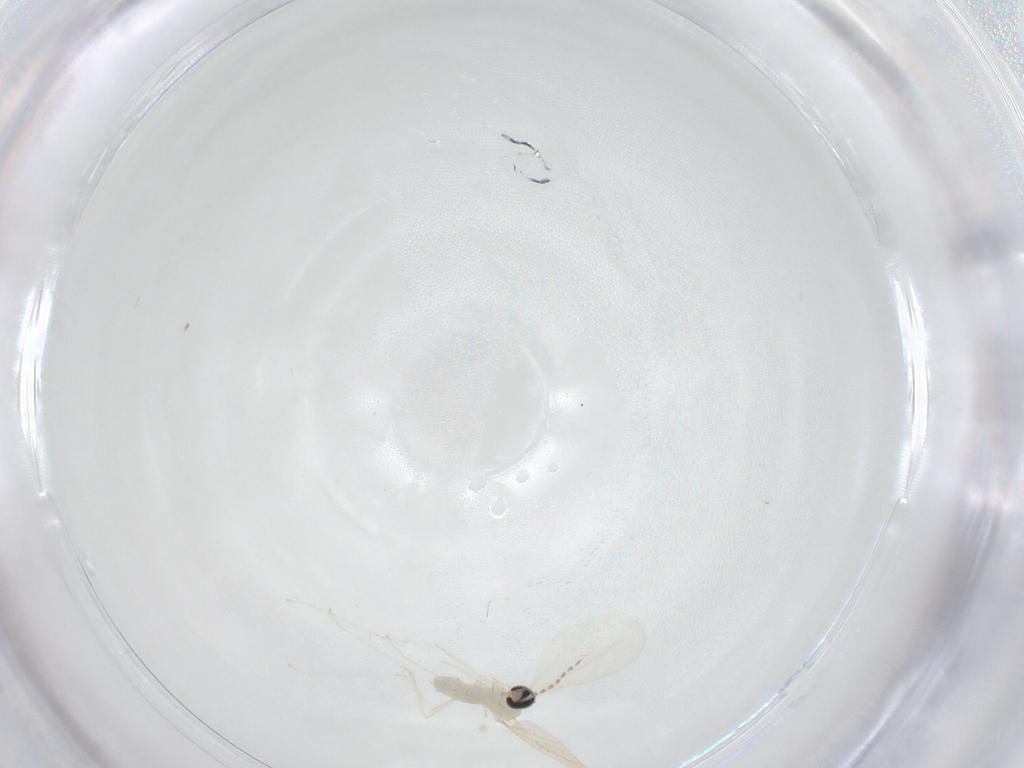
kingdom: Animalia
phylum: Arthropoda
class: Insecta
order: Diptera
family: Cecidomyiidae
